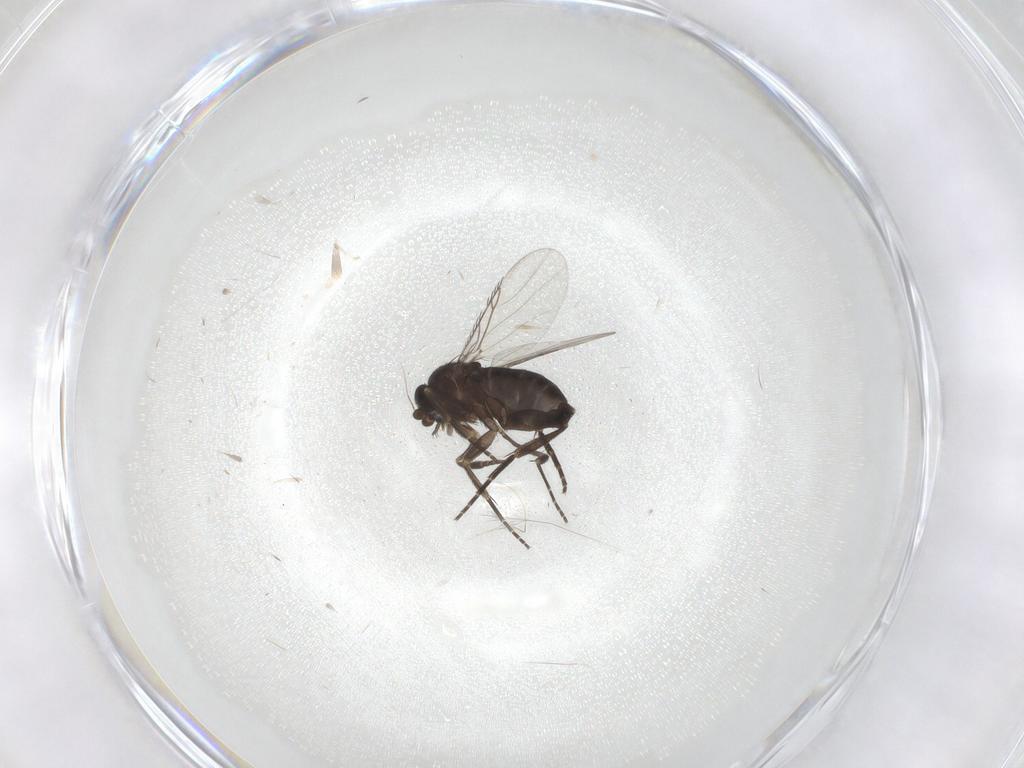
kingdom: Animalia
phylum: Arthropoda
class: Insecta
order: Diptera
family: Phoridae
